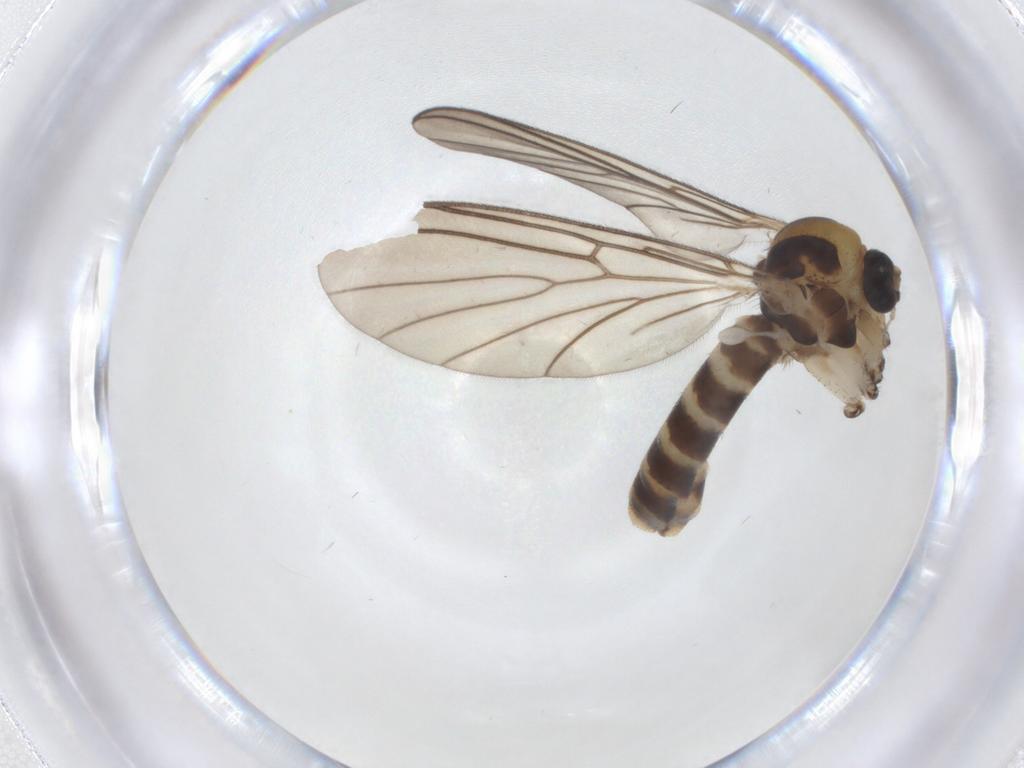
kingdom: Animalia
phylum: Arthropoda
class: Insecta
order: Diptera
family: Mycetophilidae
